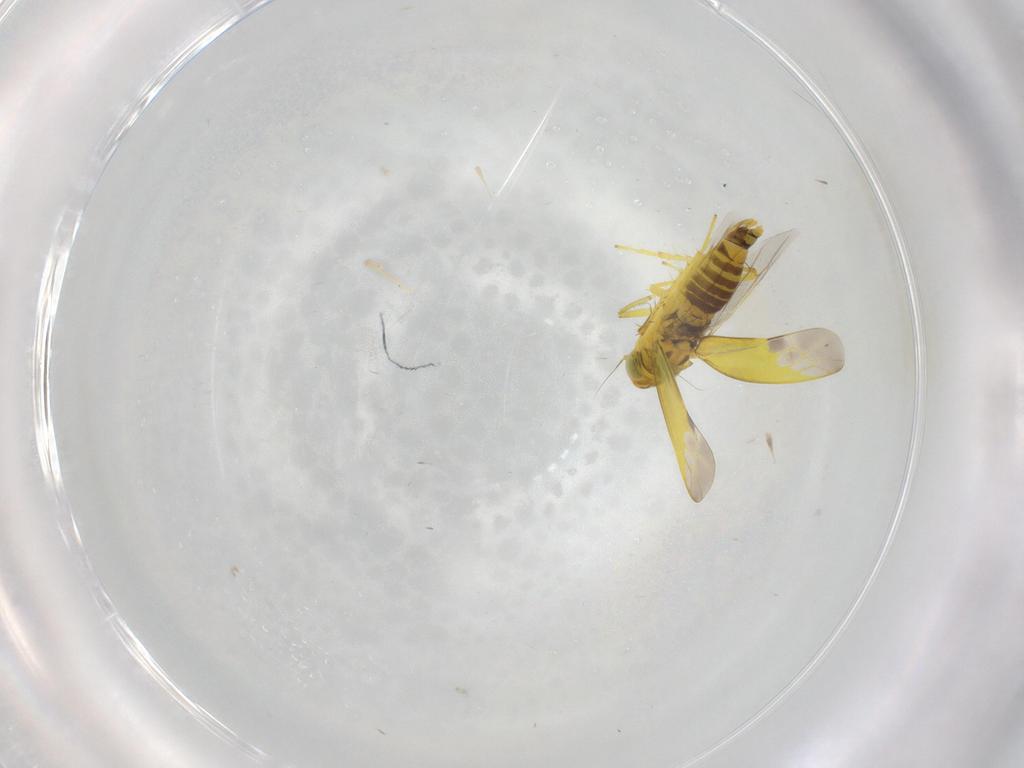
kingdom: Animalia
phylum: Arthropoda
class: Insecta
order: Hemiptera
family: Cicadellidae
